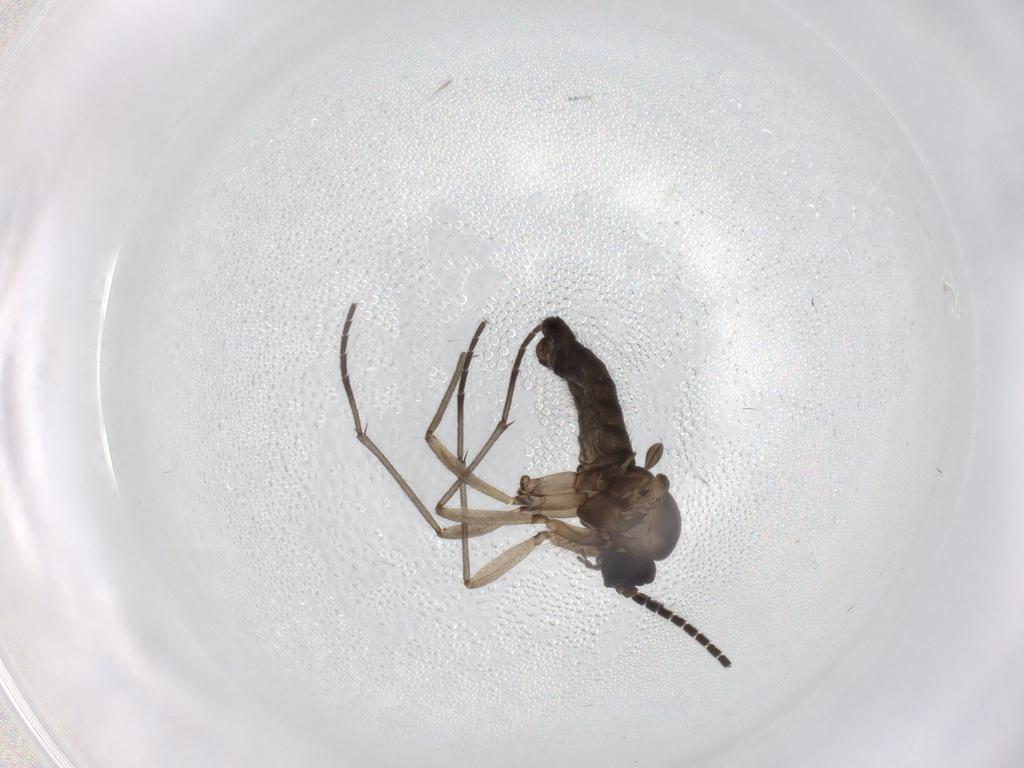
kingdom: Animalia
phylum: Arthropoda
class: Insecta
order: Diptera
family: Sciaridae
